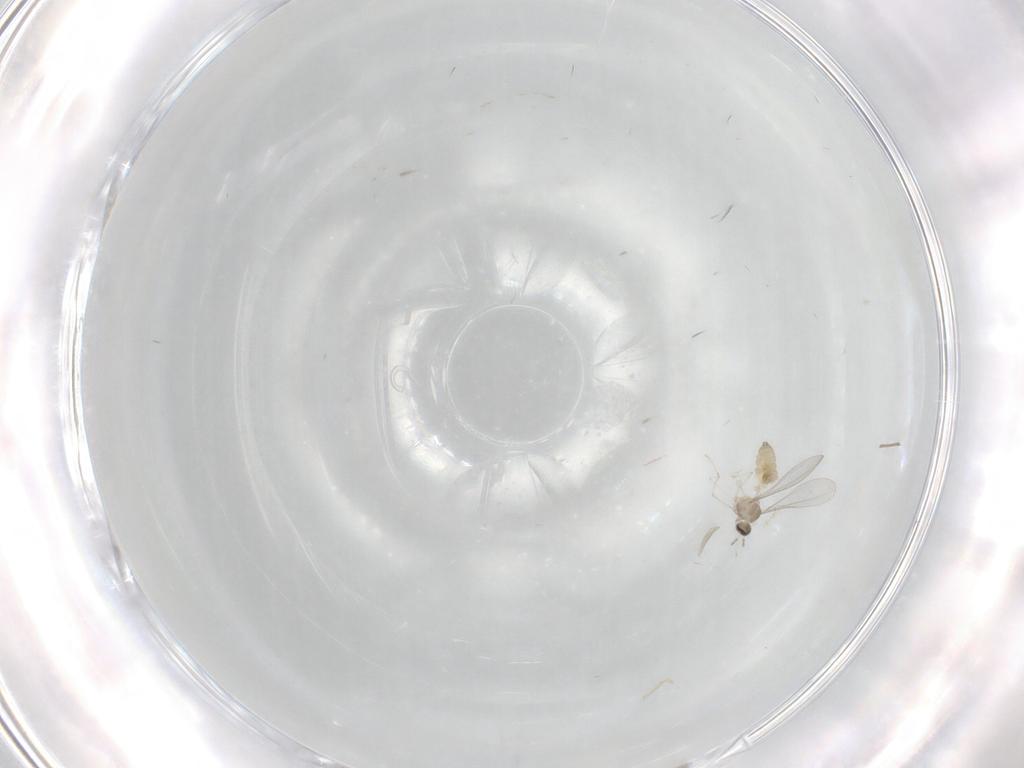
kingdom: Animalia
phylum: Arthropoda
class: Insecta
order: Diptera
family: Cecidomyiidae
